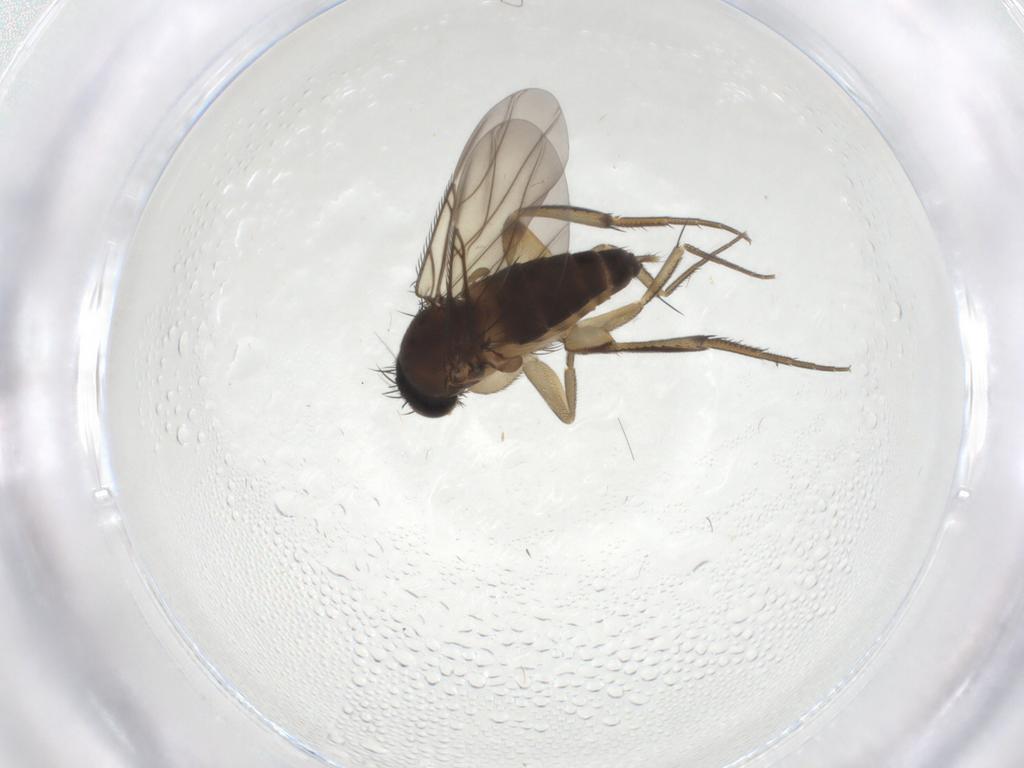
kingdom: Animalia
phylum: Arthropoda
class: Insecta
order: Diptera
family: Phoridae
